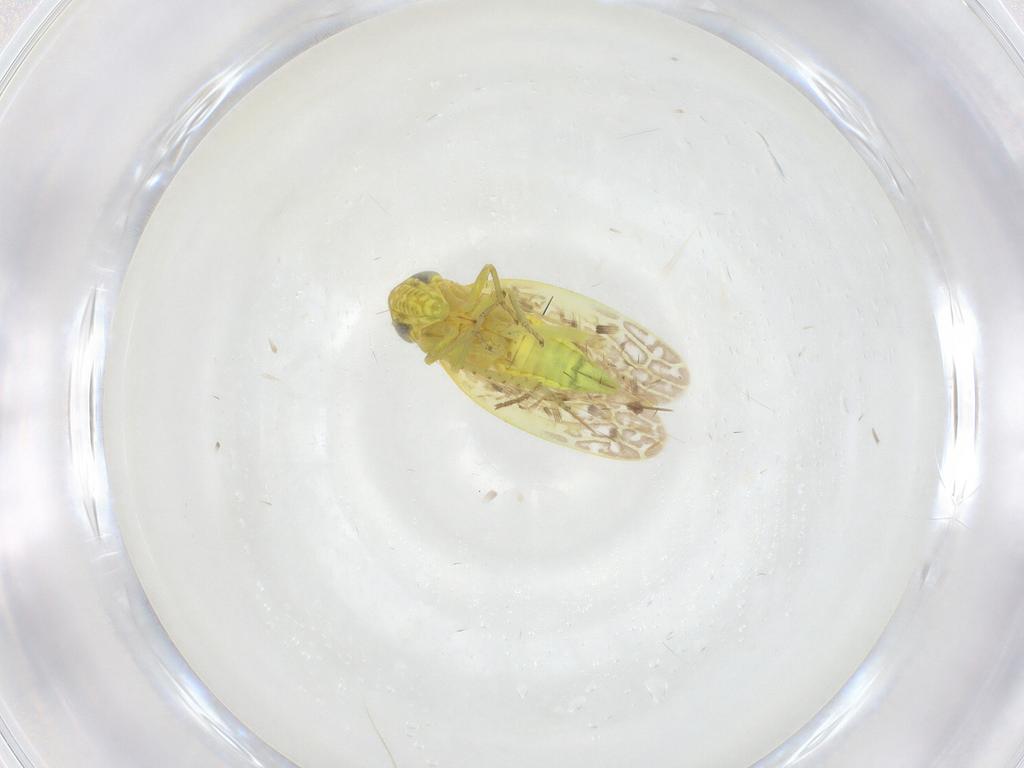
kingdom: Animalia
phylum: Arthropoda
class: Insecta
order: Hemiptera
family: Cicadellidae
